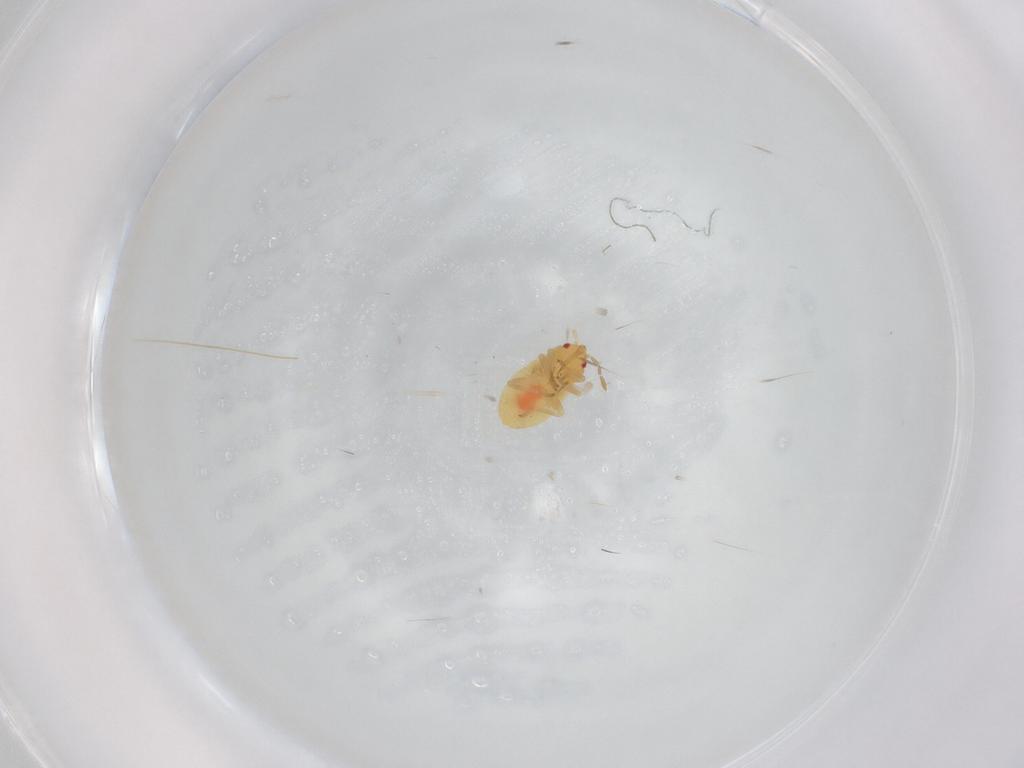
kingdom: Animalia
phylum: Arthropoda
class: Insecta
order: Hemiptera
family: Anthocoridae
